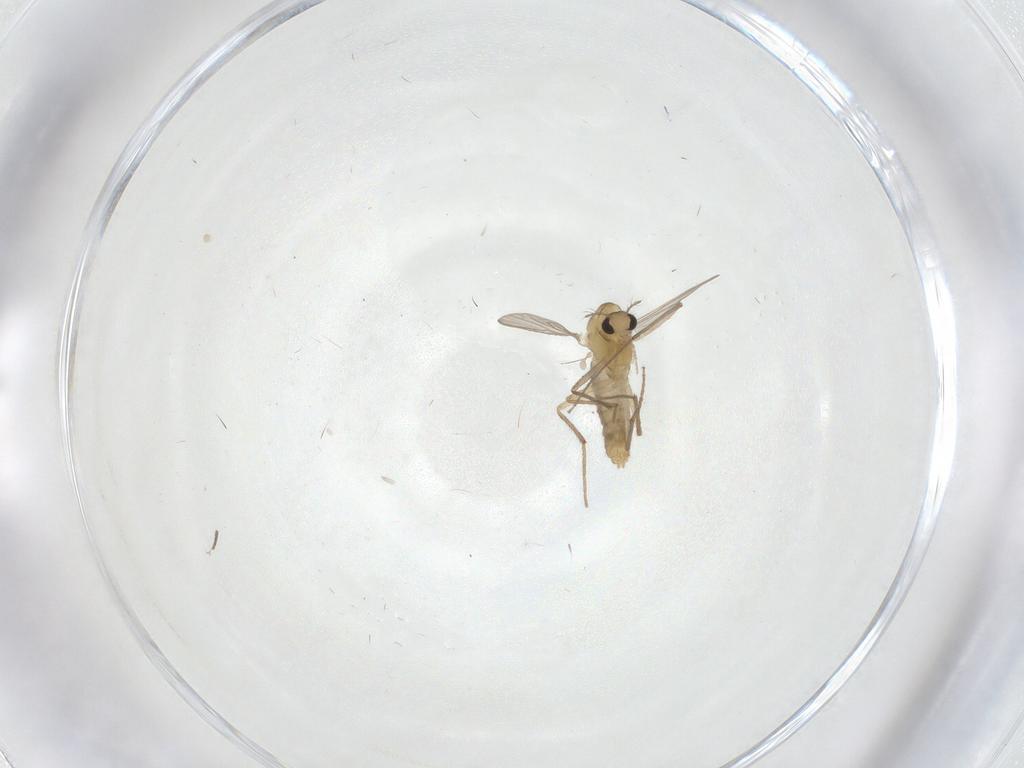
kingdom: Animalia
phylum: Arthropoda
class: Insecta
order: Diptera
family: Chironomidae
